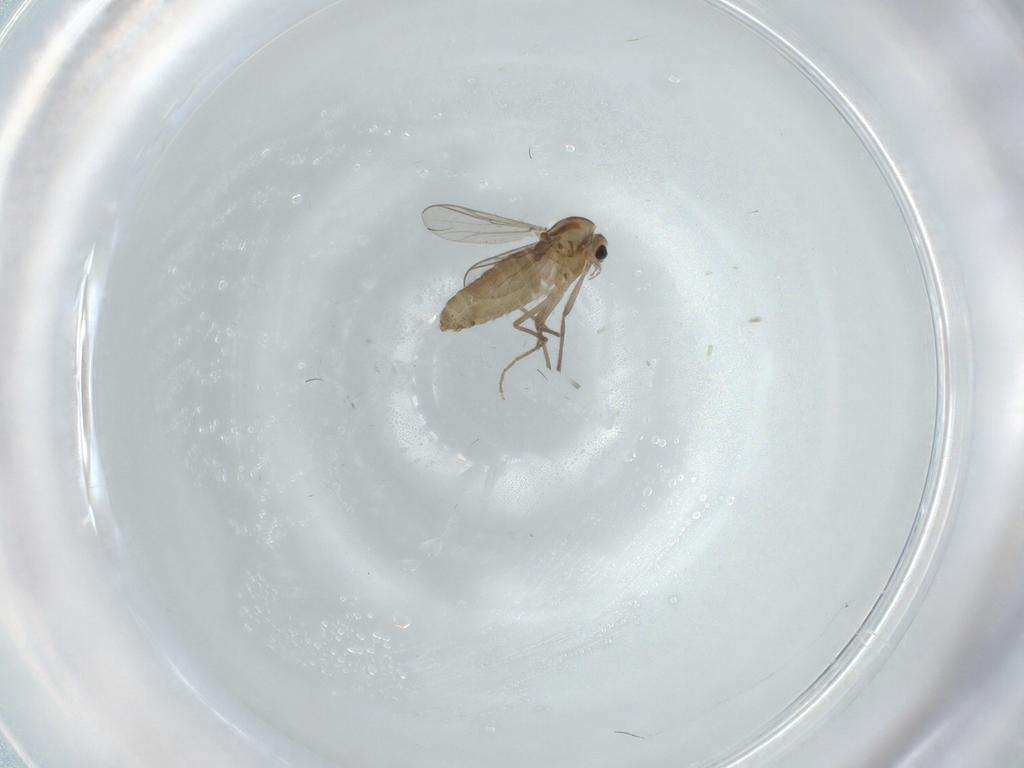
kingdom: Animalia
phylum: Arthropoda
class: Insecta
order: Diptera
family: Chironomidae
